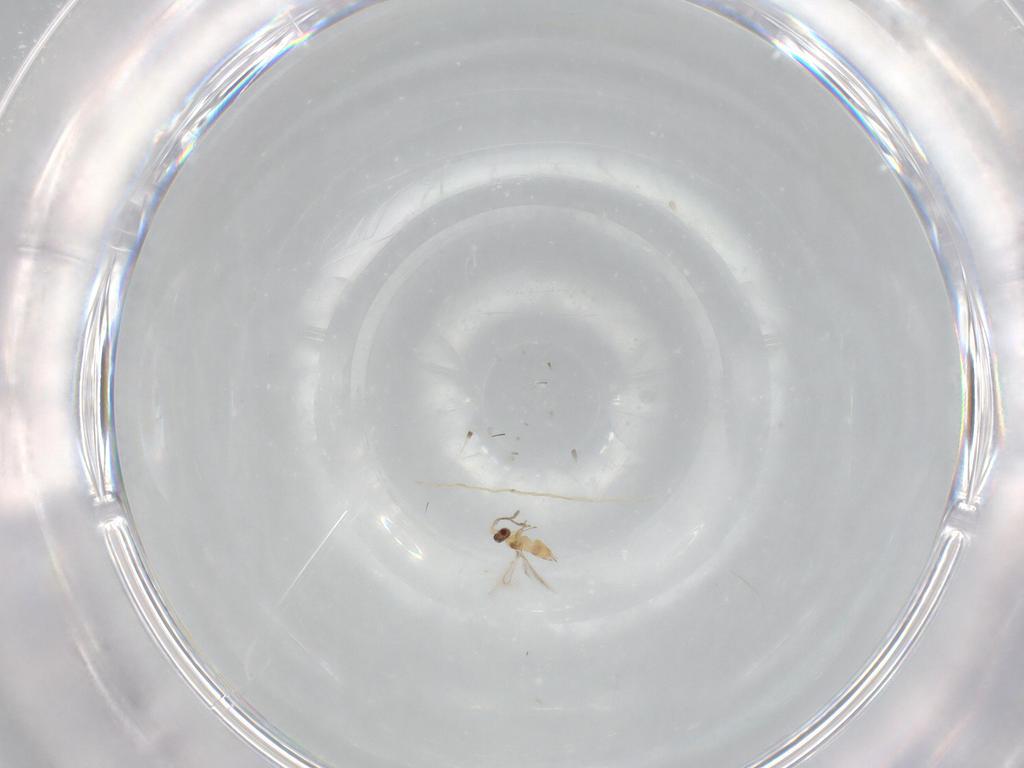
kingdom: Animalia
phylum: Arthropoda
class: Insecta
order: Hymenoptera
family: Mymaridae
